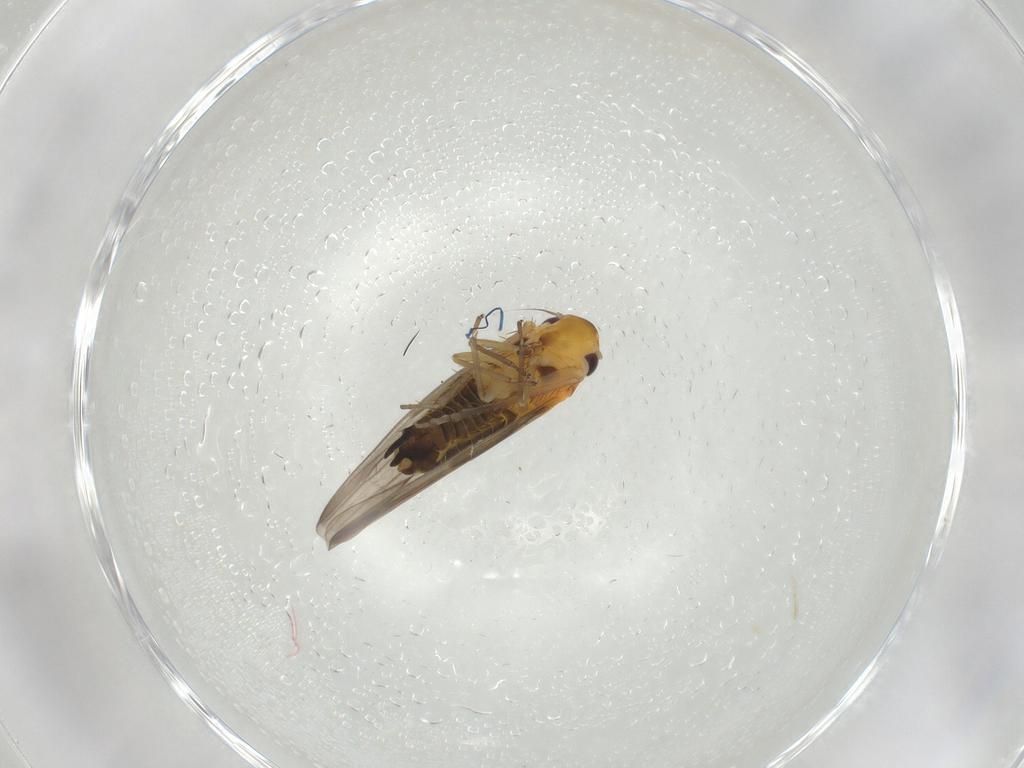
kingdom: Animalia
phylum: Arthropoda
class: Insecta
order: Hemiptera
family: Cicadellidae
